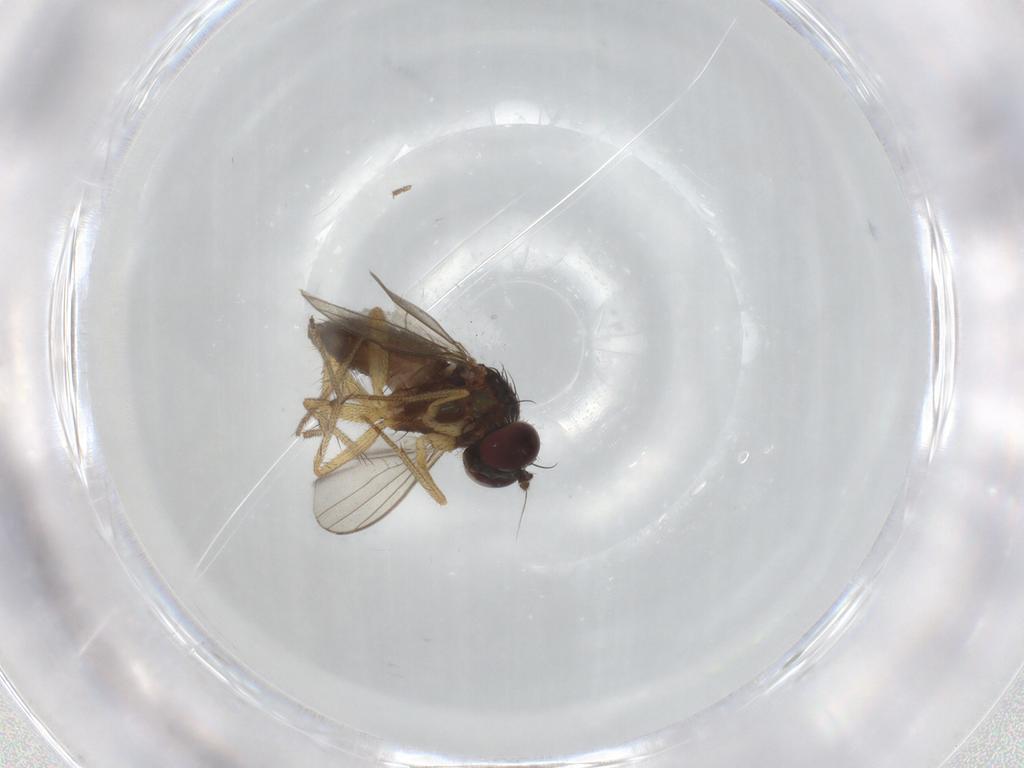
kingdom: Animalia
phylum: Arthropoda
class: Insecta
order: Diptera
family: Dolichopodidae
